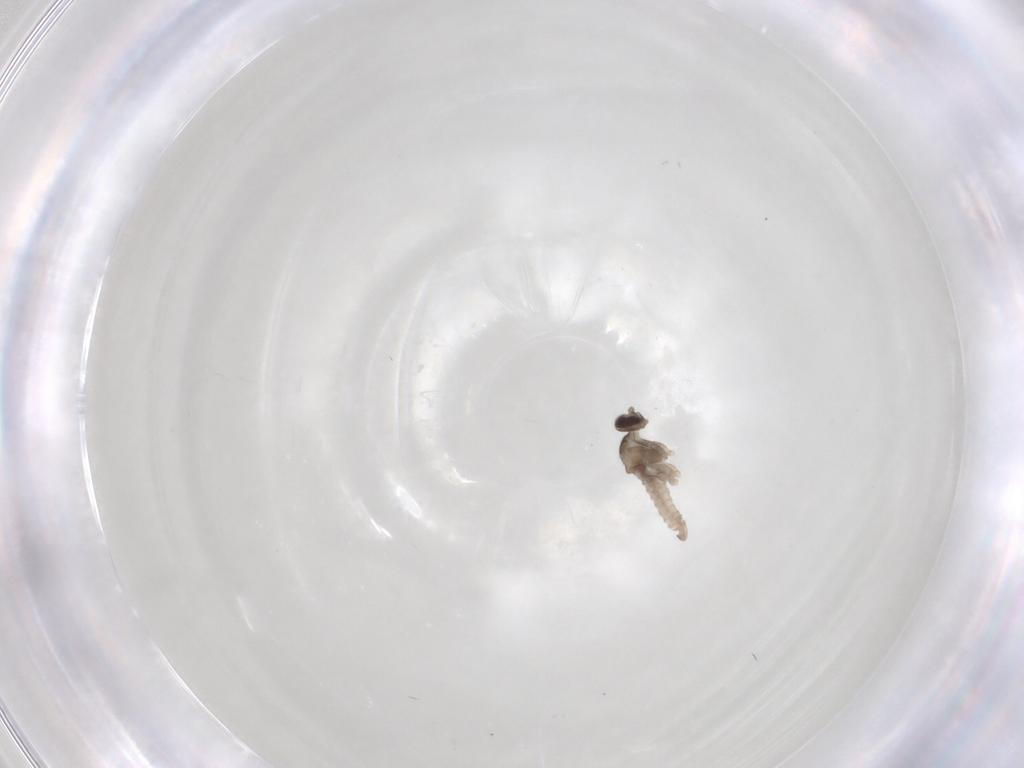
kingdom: Animalia
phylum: Arthropoda
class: Insecta
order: Diptera
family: Cecidomyiidae
